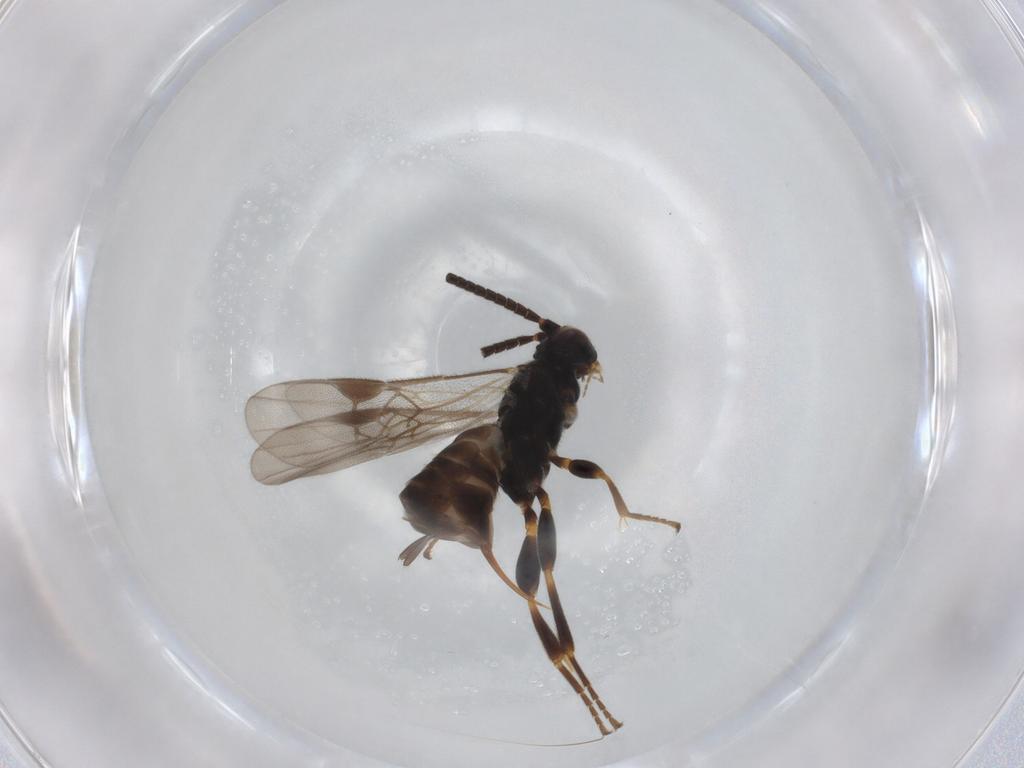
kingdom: Animalia
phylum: Arthropoda
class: Insecta
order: Hymenoptera
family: Braconidae
